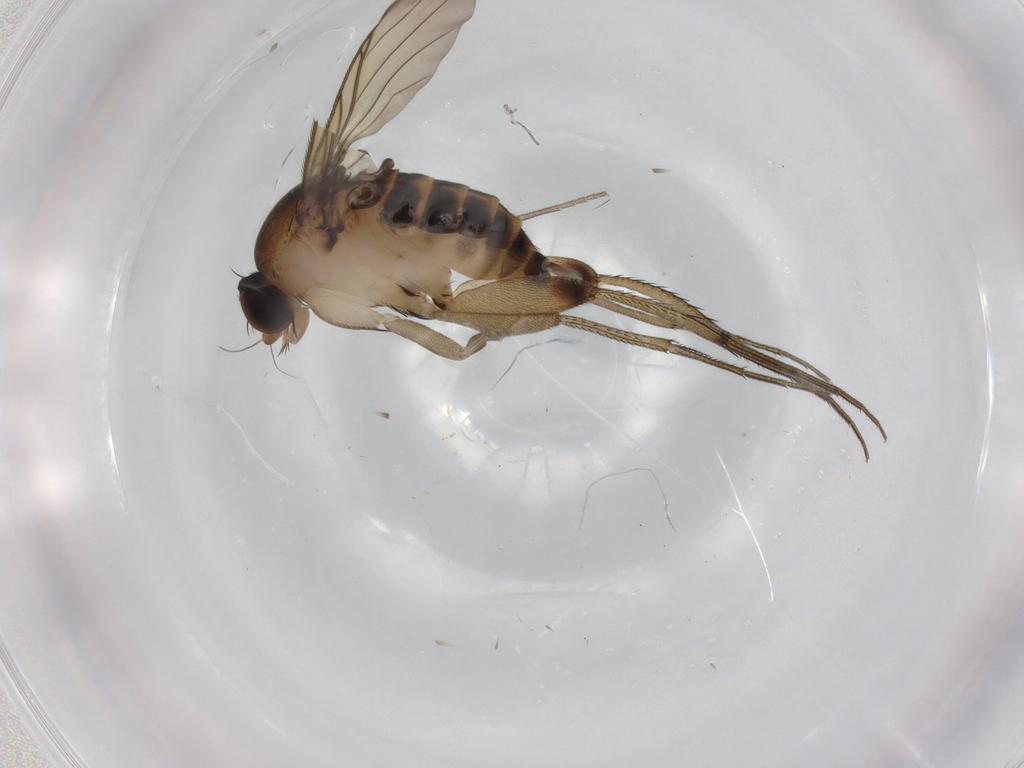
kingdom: Animalia
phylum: Arthropoda
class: Insecta
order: Diptera
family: Phoridae
